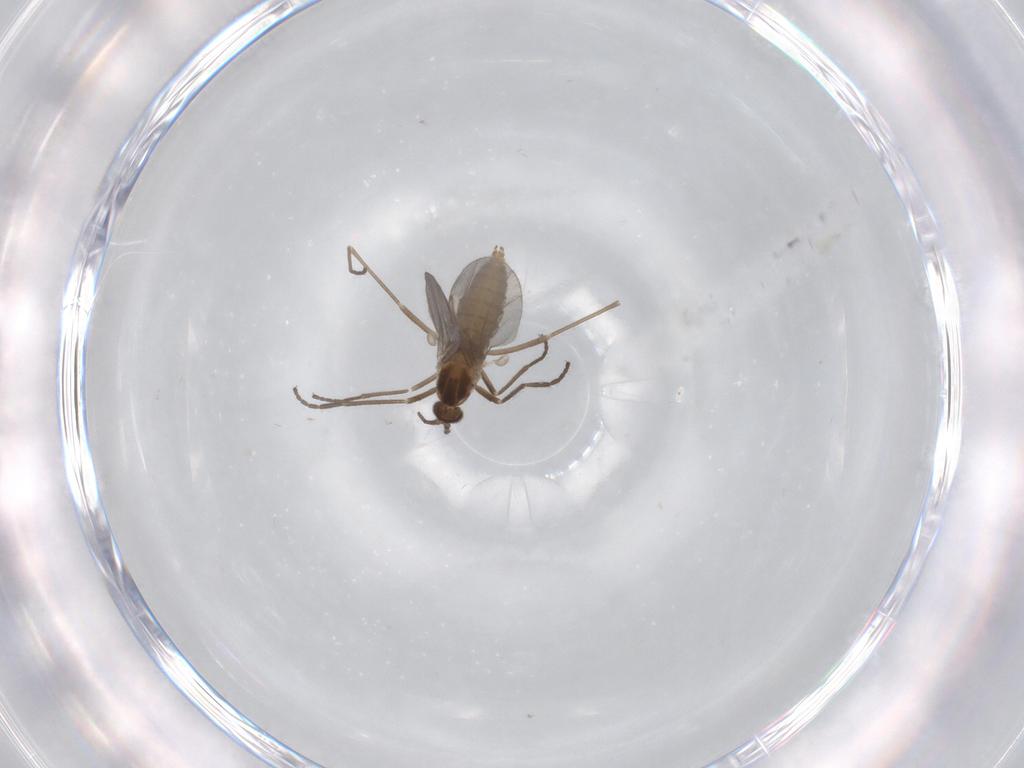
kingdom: Animalia
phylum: Arthropoda
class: Insecta
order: Diptera
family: Cecidomyiidae
